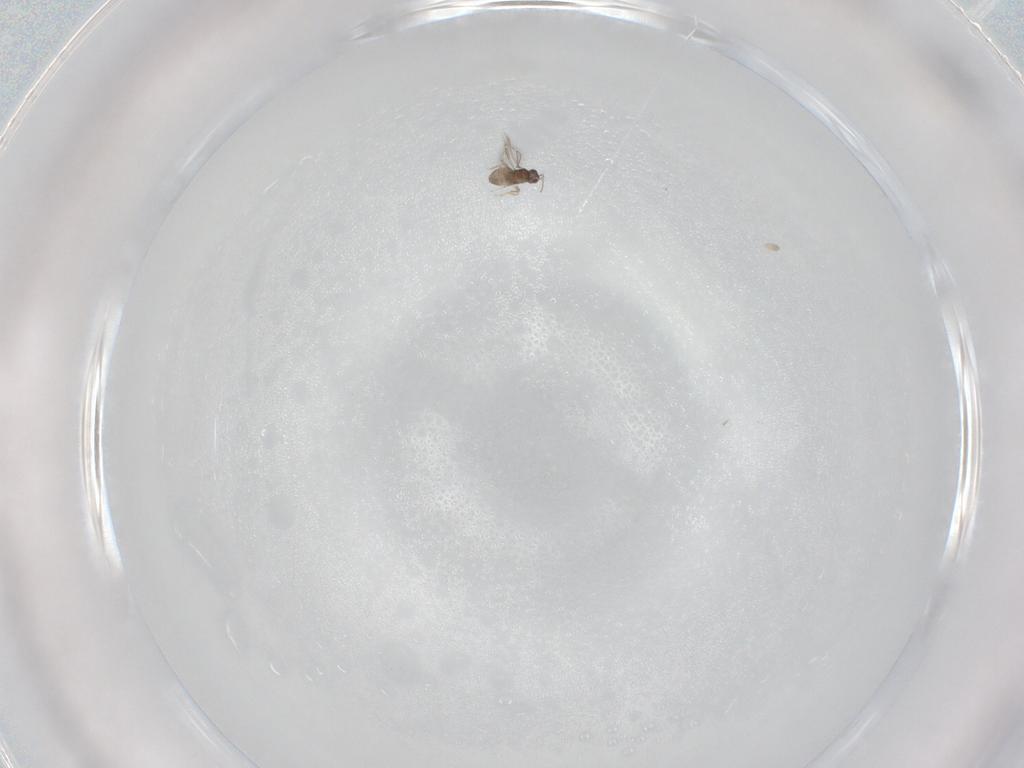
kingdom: Animalia
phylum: Arthropoda
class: Insecta
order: Hymenoptera
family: Aphelinidae
